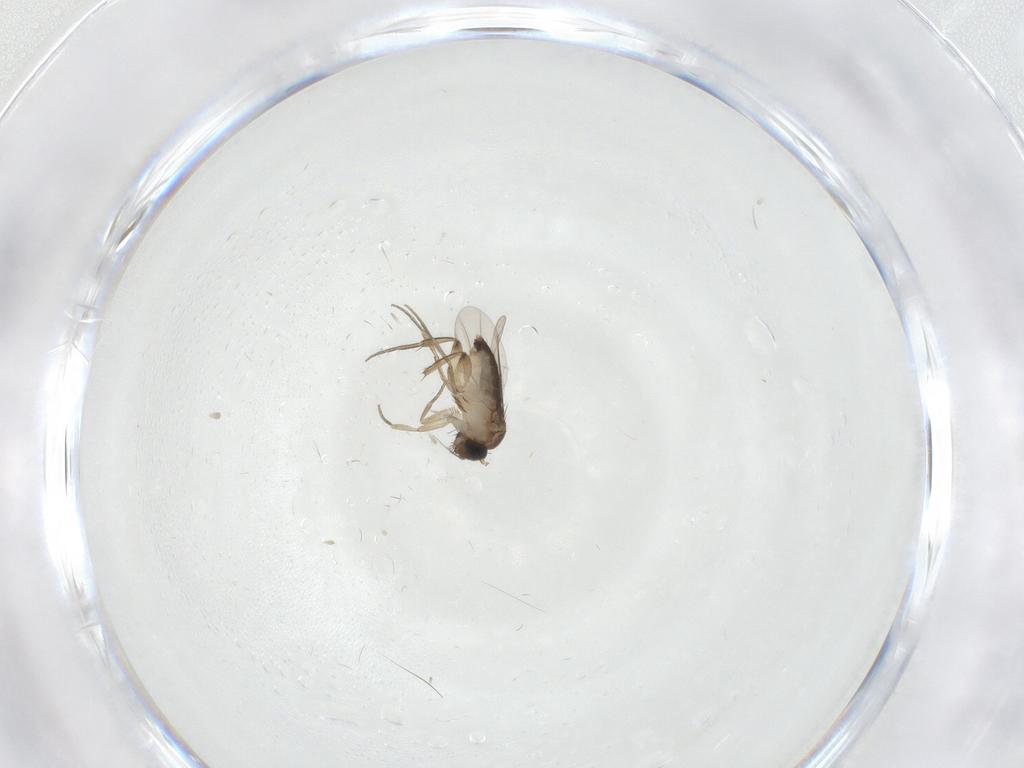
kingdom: Animalia
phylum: Arthropoda
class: Insecta
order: Diptera
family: Phoridae
